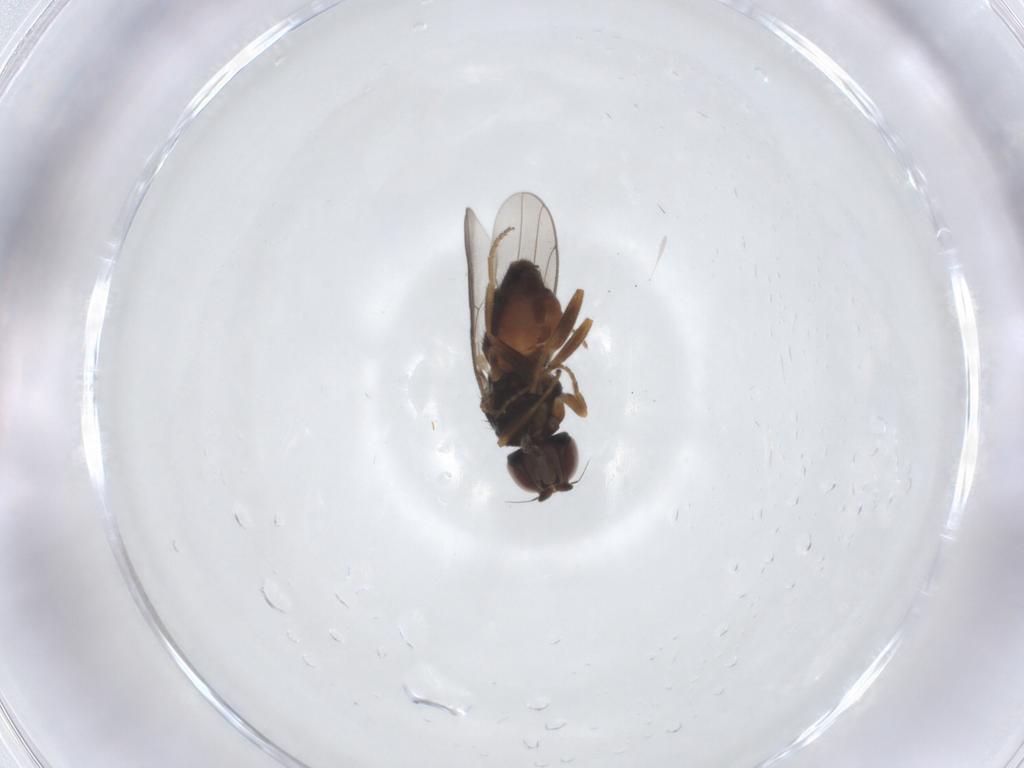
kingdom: Animalia
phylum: Arthropoda
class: Insecta
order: Diptera
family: Chloropidae
